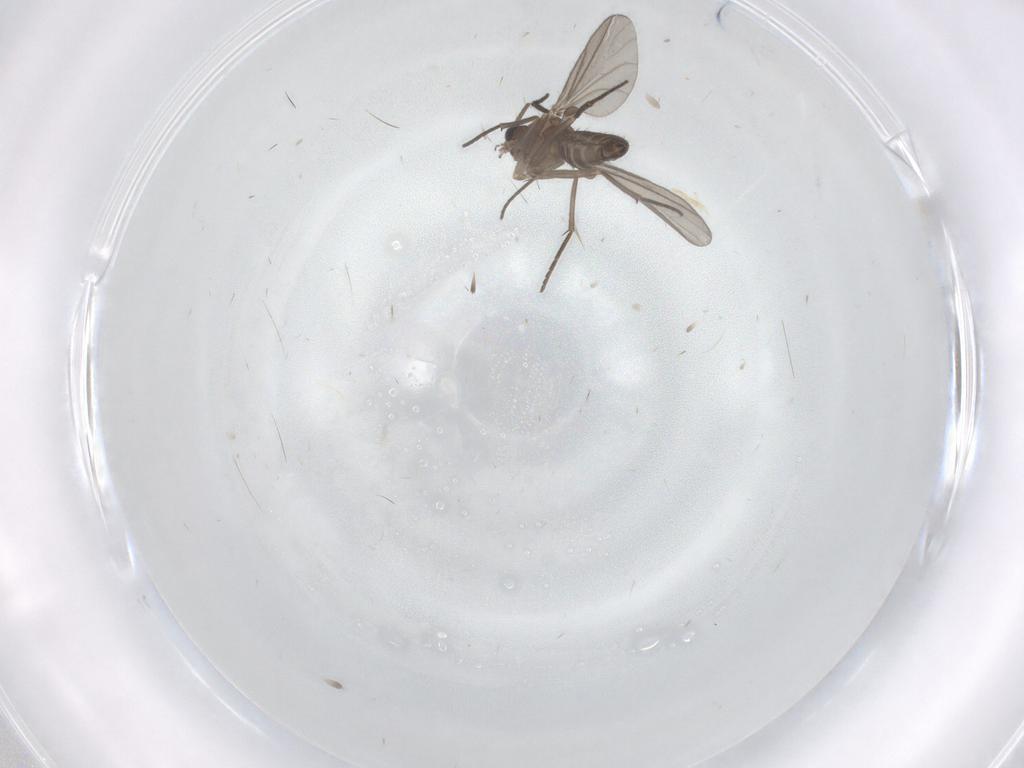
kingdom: Animalia
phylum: Arthropoda
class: Insecta
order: Diptera
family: Sciaridae
